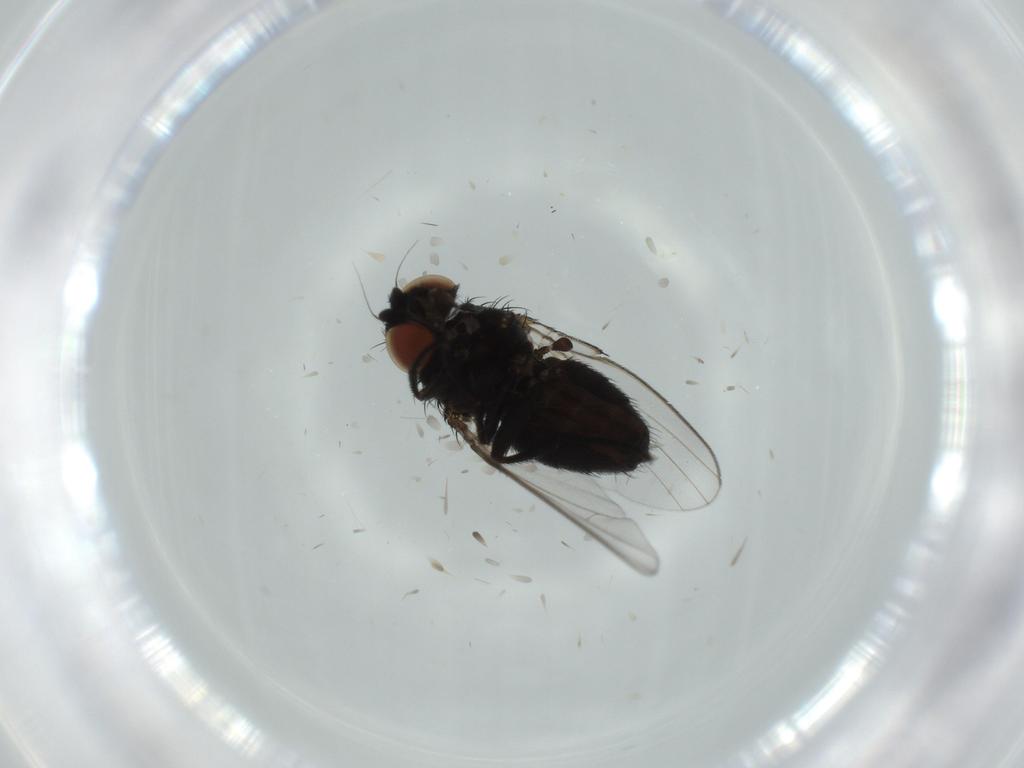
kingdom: Animalia
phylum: Arthropoda
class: Insecta
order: Diptera
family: Milichiidae
